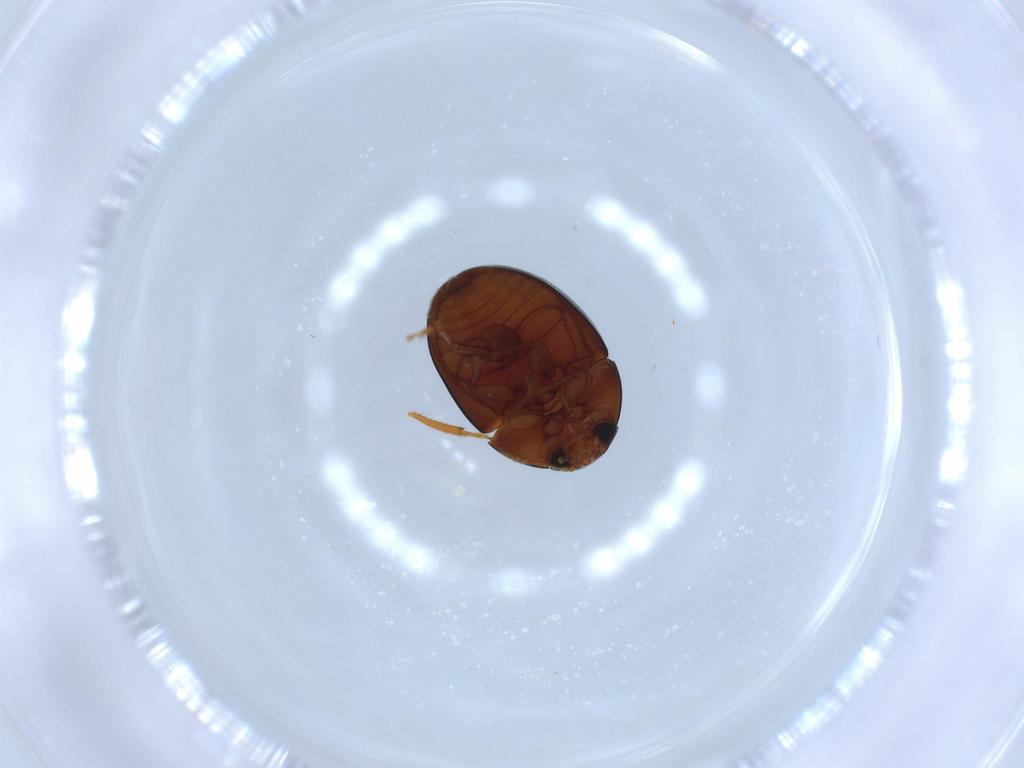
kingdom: Animalia
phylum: Arthropoda
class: Insecta
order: Coleoptera
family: Phalacridae
